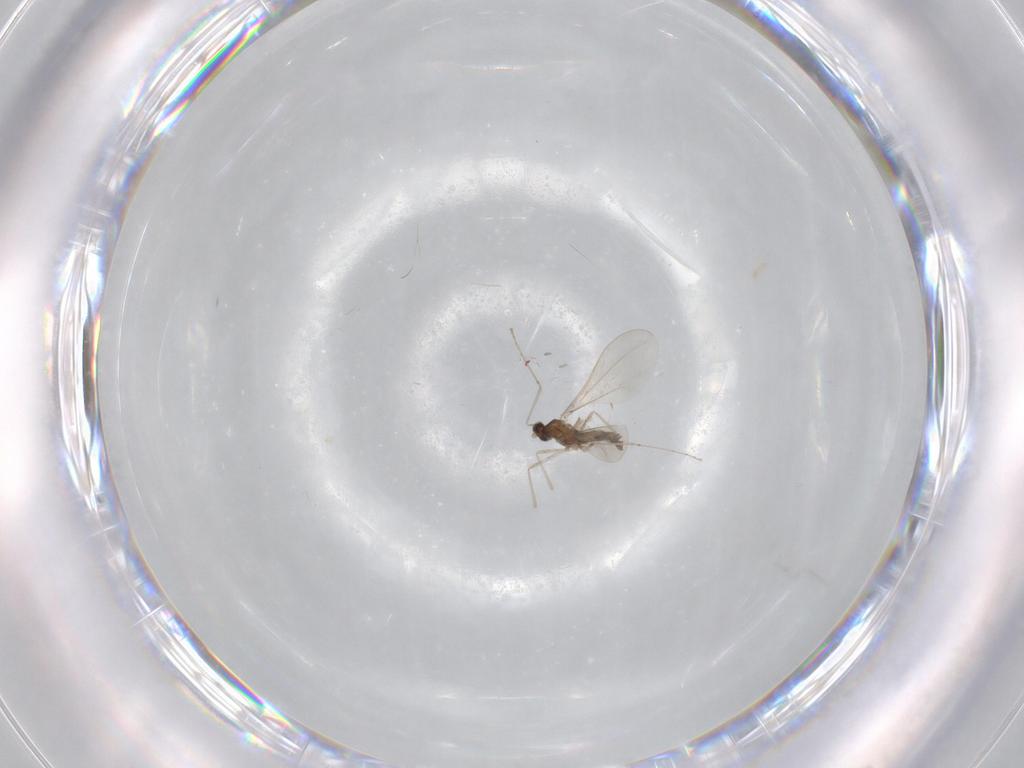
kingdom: Animalia
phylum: Arthropoda
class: Insecta
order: Diptera
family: Cecidomyiidae
